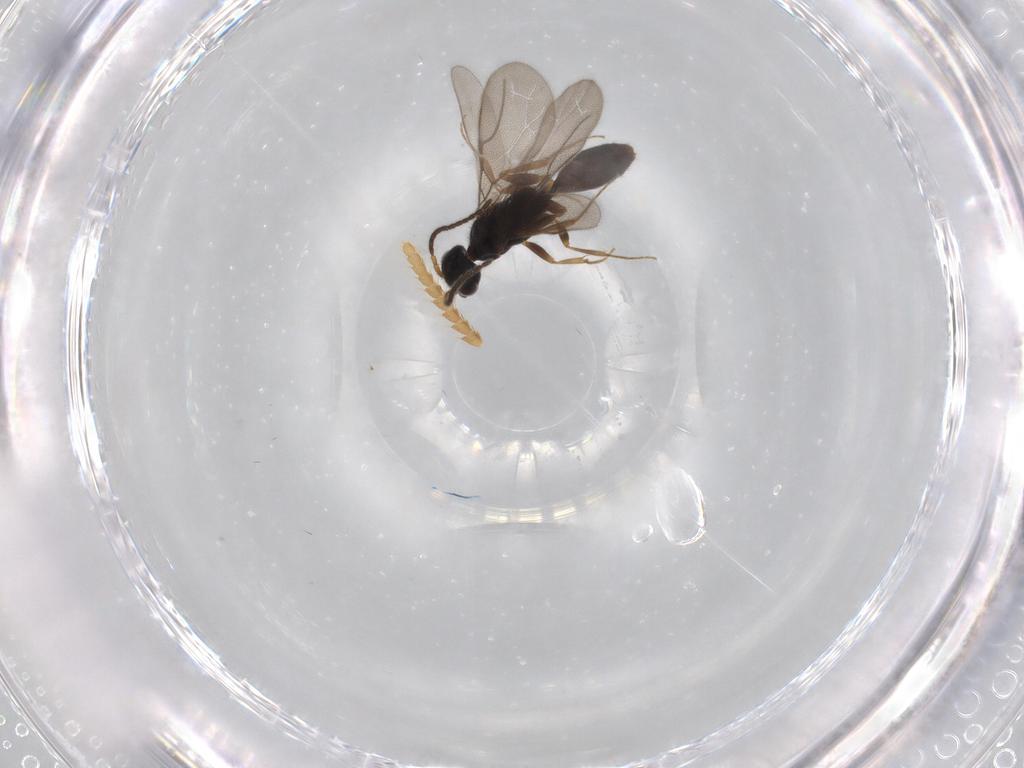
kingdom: Animalia
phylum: Arthropoda
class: Insecta
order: Hymenoptera
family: Bethylidae
